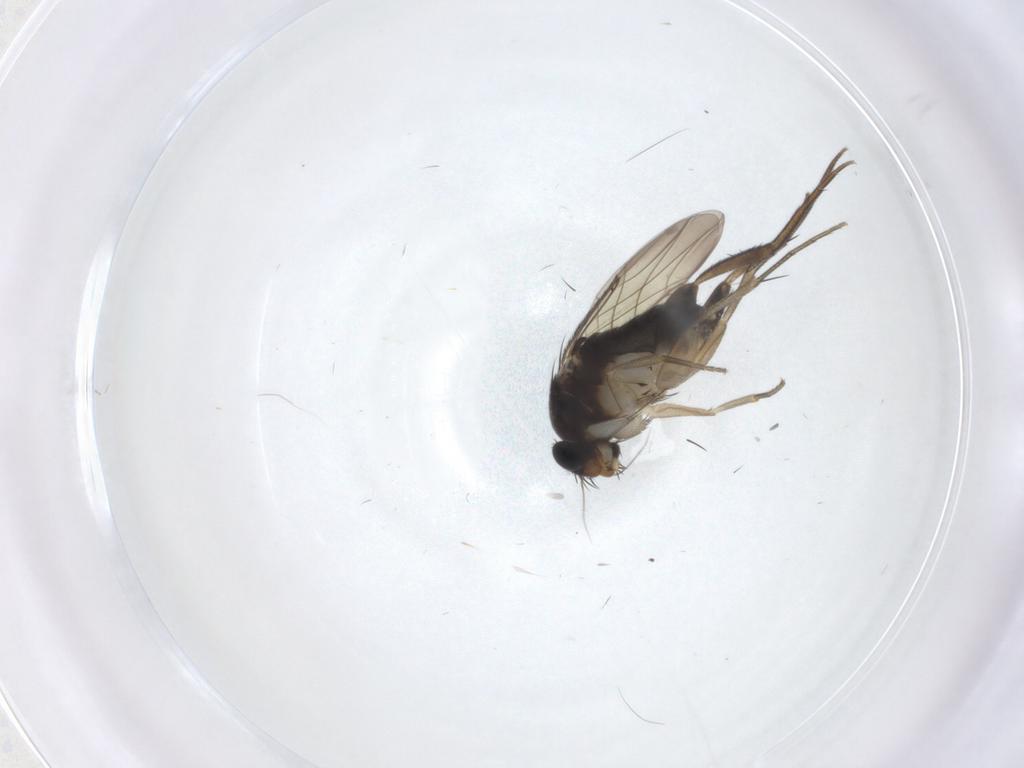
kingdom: Animalia
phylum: Arthropoda
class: Insecta
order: Diptera
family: Phoridae
